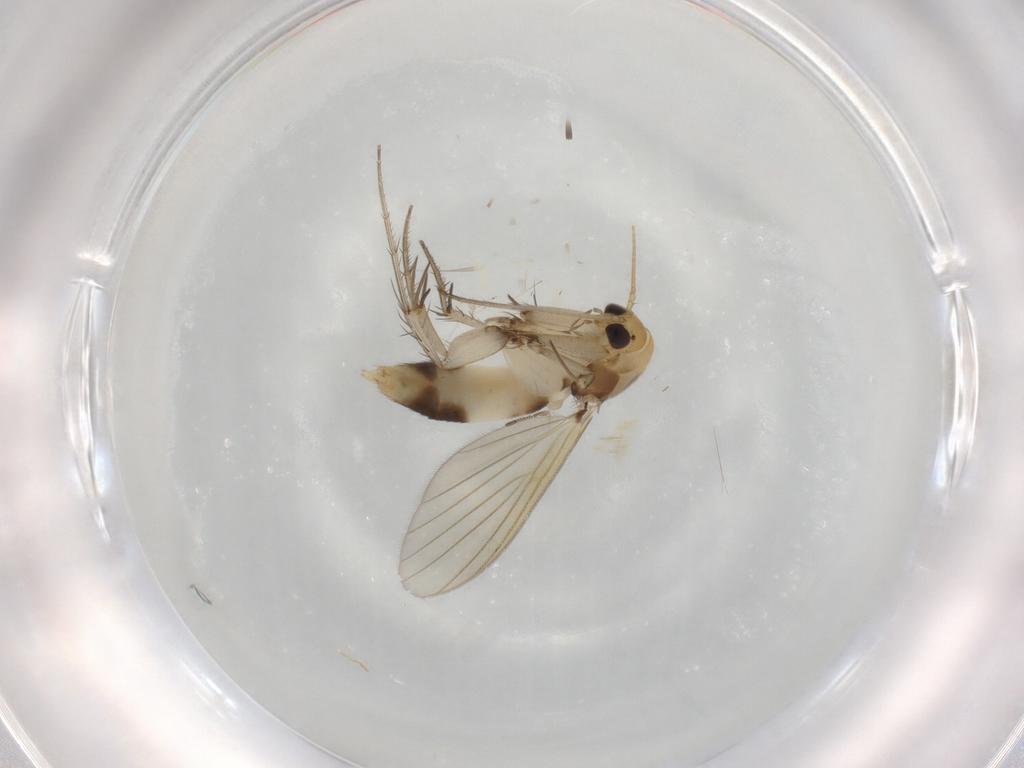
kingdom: Animalia
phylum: Arthropoda
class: Insecta
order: Diptera
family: Mycetophilidae
